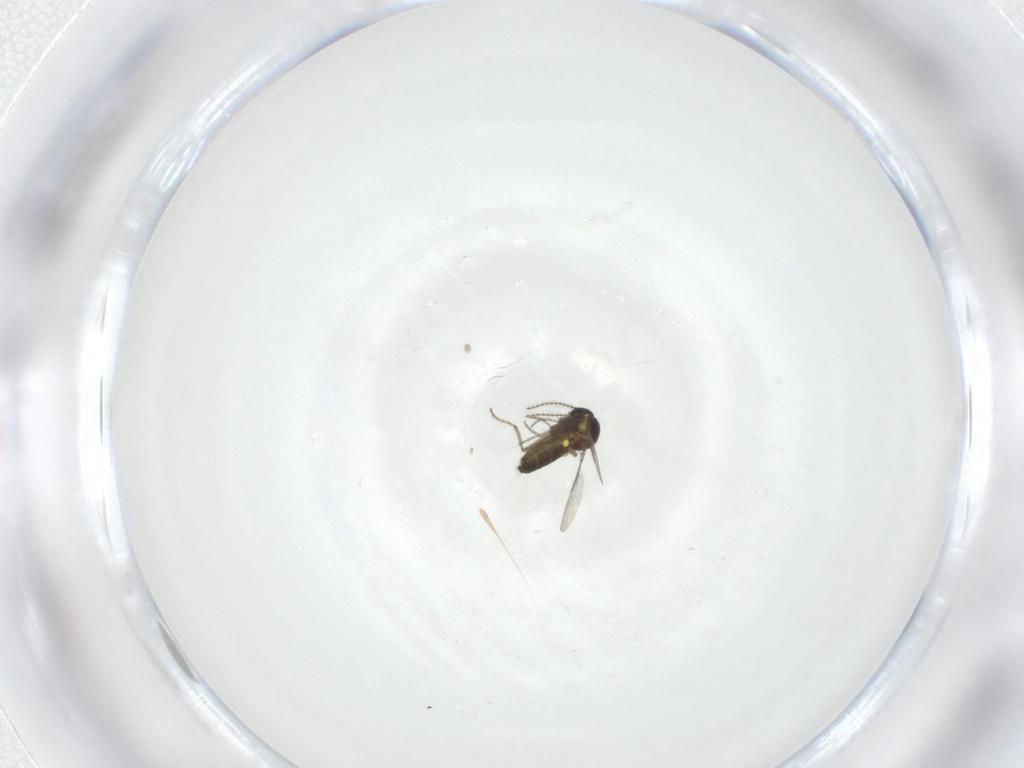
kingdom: Animalia
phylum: Arthropoda
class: Insecta
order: Diptera
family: Ceratopogonidae
